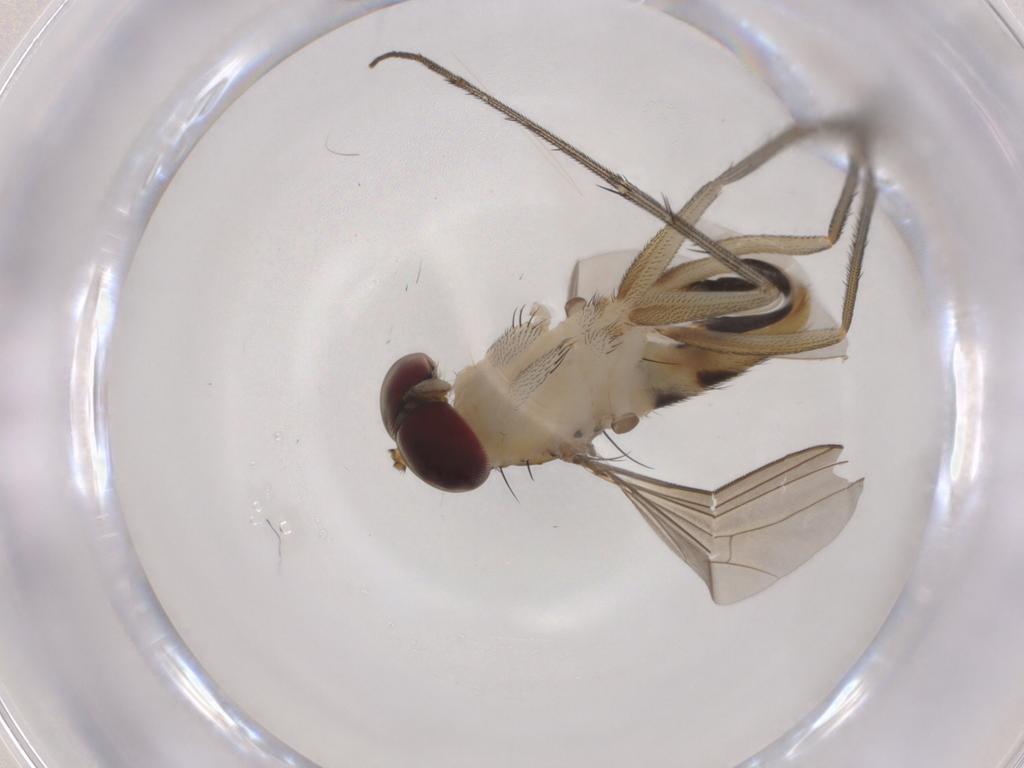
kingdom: Animalia
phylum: Arthropoda
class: Insecta
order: Diptera
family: Dolichopodidae
